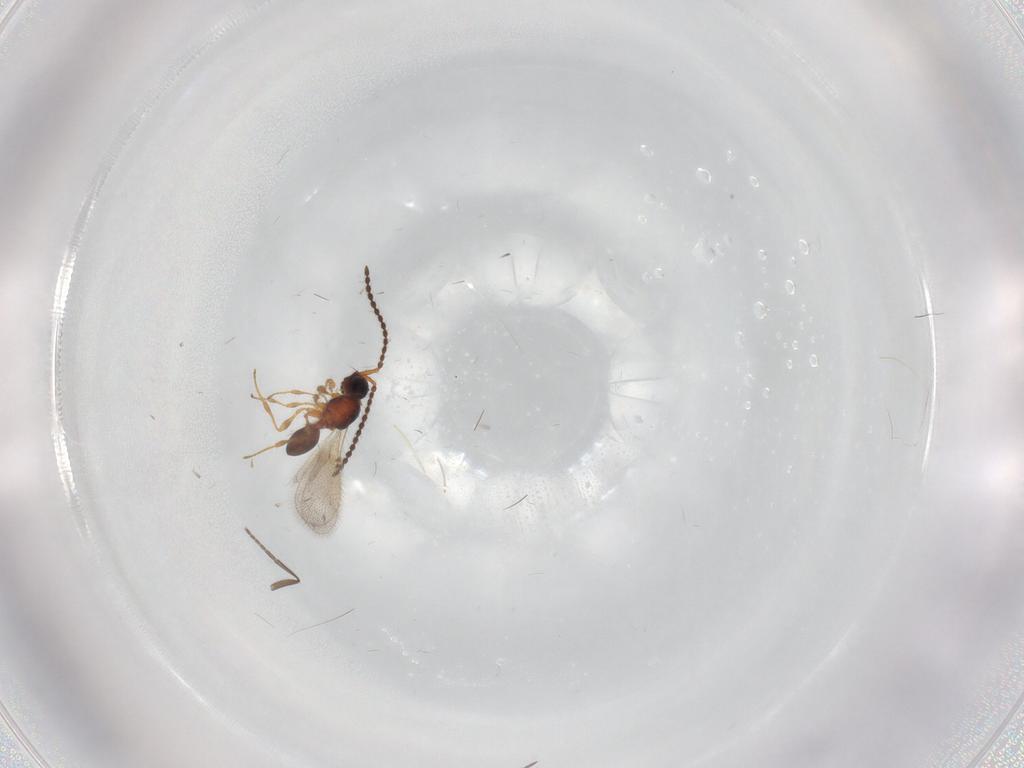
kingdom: Animalia
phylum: Arthropoda
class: Insecta
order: Hymenoptera
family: Diapriidae
